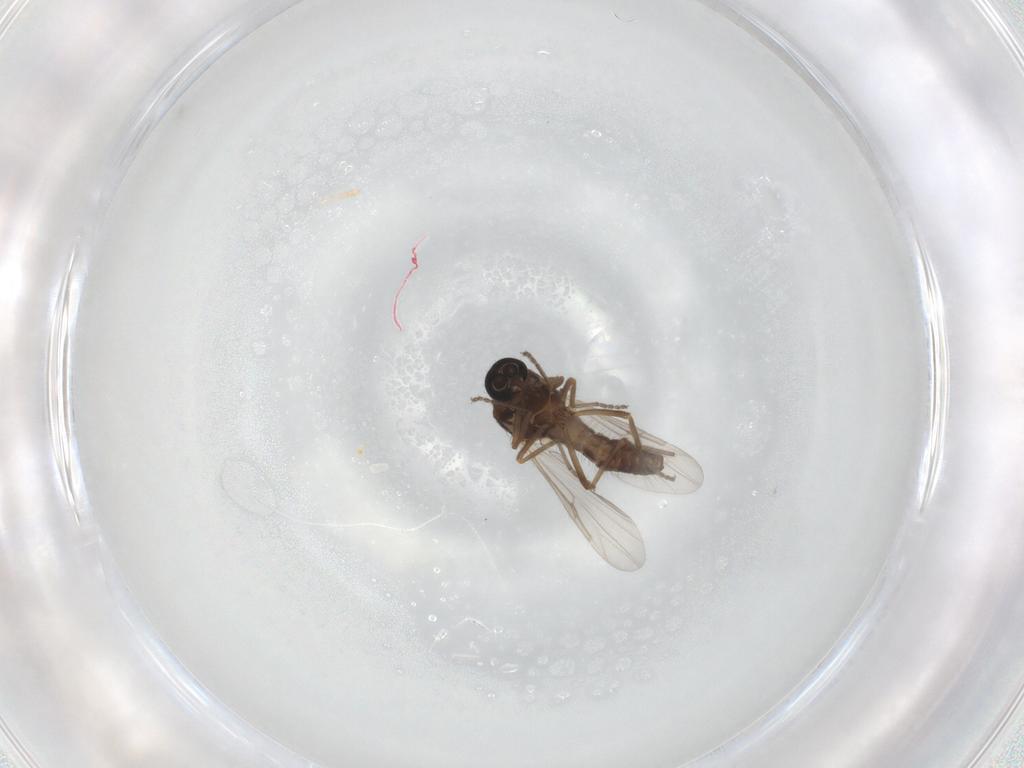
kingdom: Animalia
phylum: Arthropoda
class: Insecta
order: Diptera
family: Ceratopogonidae
